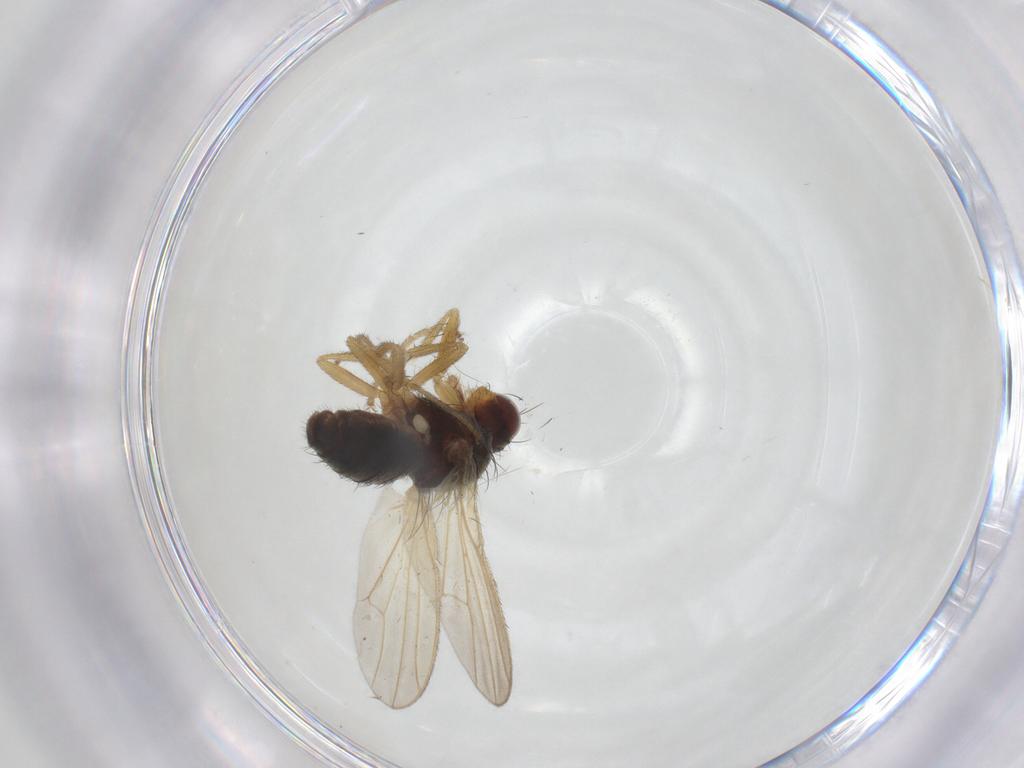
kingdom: Animalia
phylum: Arthropoda
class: Insecta
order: Diptera
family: Heleomyzidae
